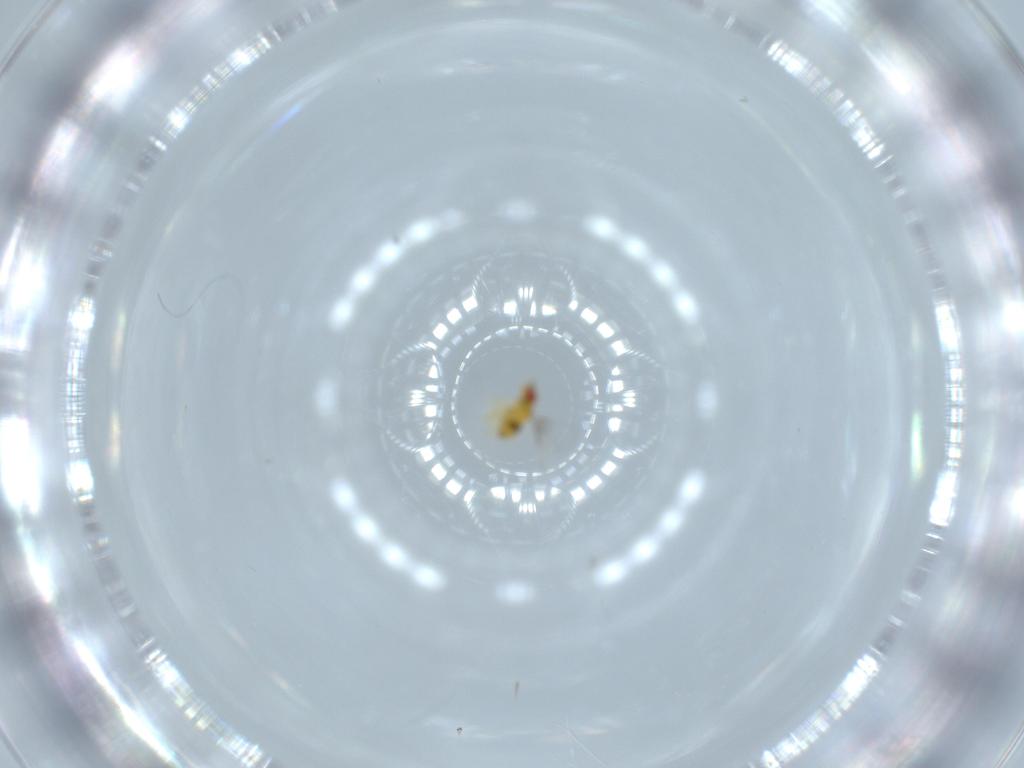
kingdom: Animalia
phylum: Arthropoda
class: Insecta
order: Hymenoptera
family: Trichogrammatidae
